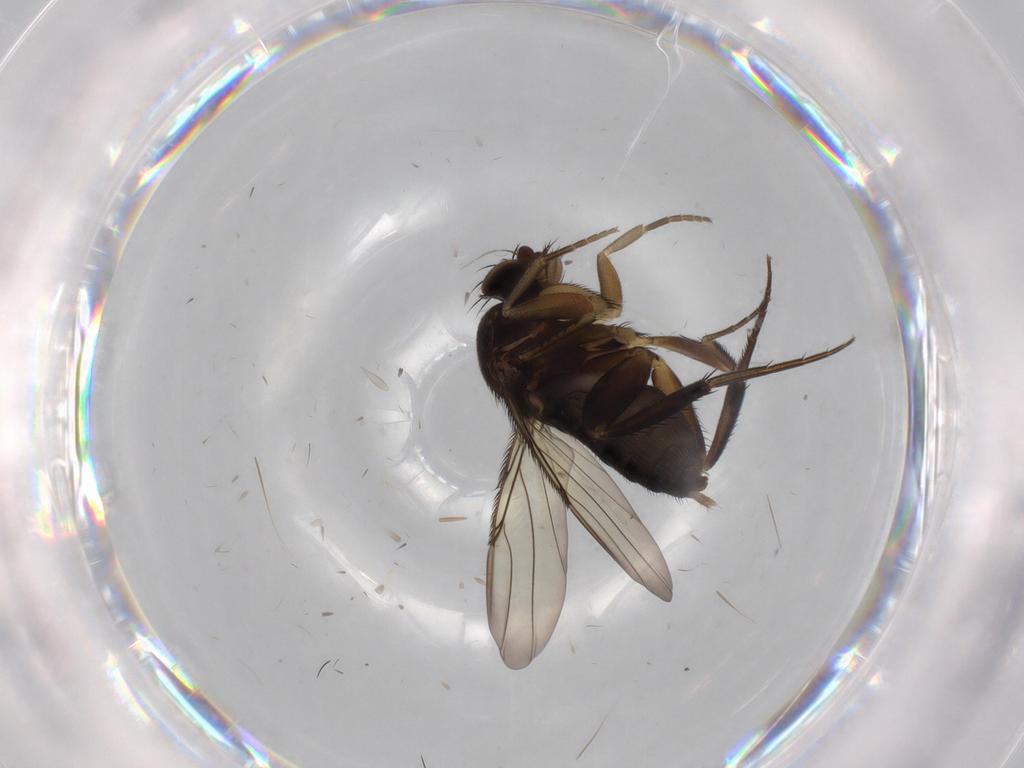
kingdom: Animalia
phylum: Arthropoda
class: Insecta
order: Diptera
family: Phoridae
